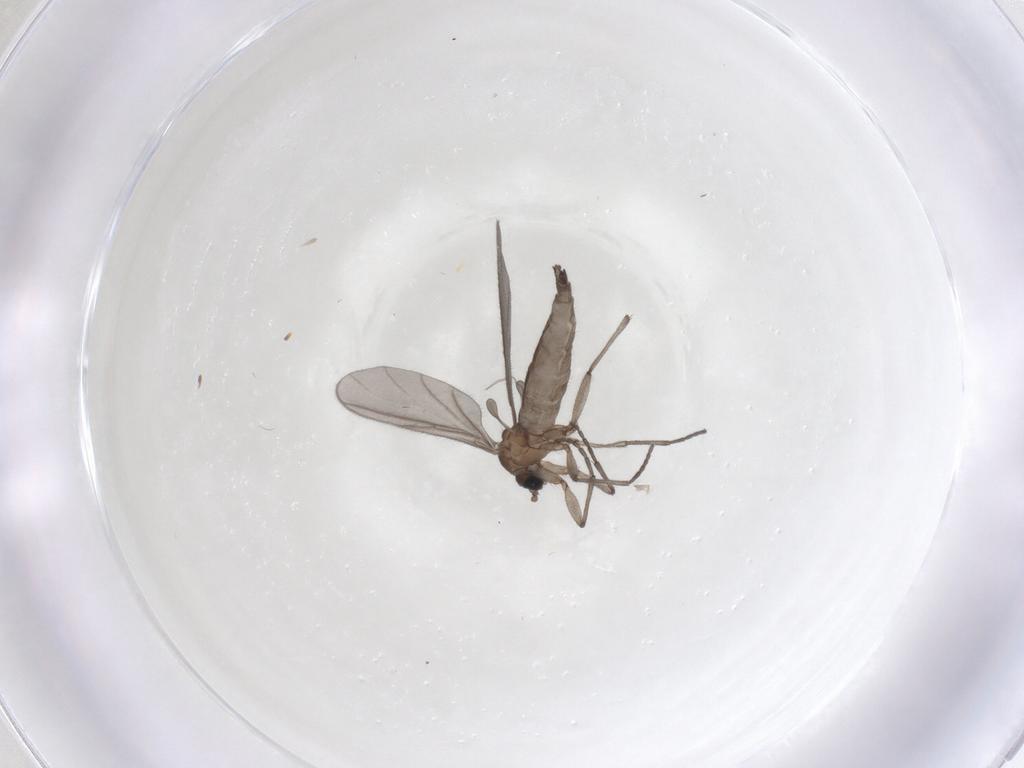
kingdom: Animalia
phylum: Arthropoda
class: Insecta
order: Diptera
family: Sciaridae
